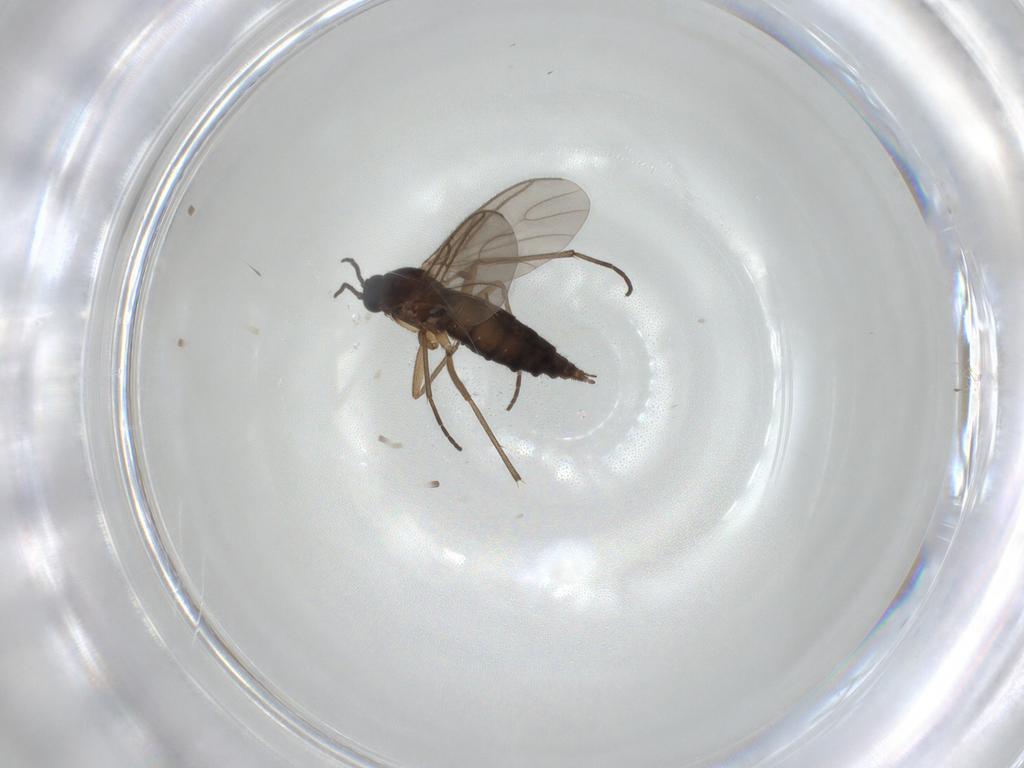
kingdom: Animalia
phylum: Arthropoda
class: Insecta
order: Diptera
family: Sciaridae
